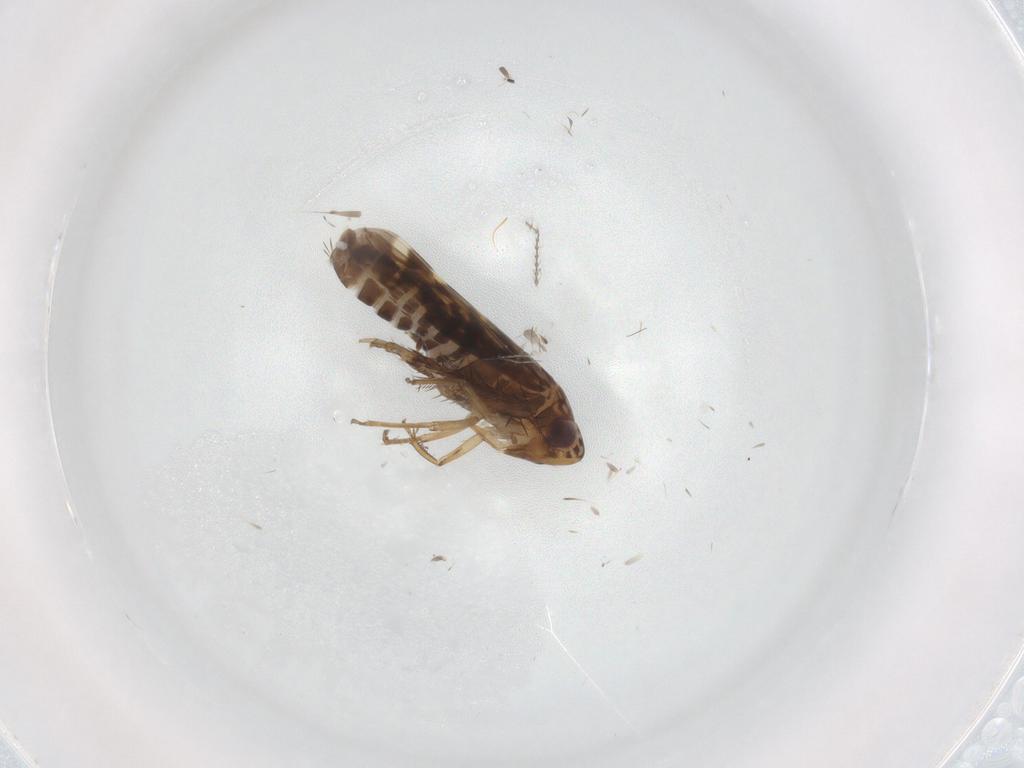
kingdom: Animalia
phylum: Arthropoda
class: Insecta
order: Hemiptera
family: Cicadellidae
